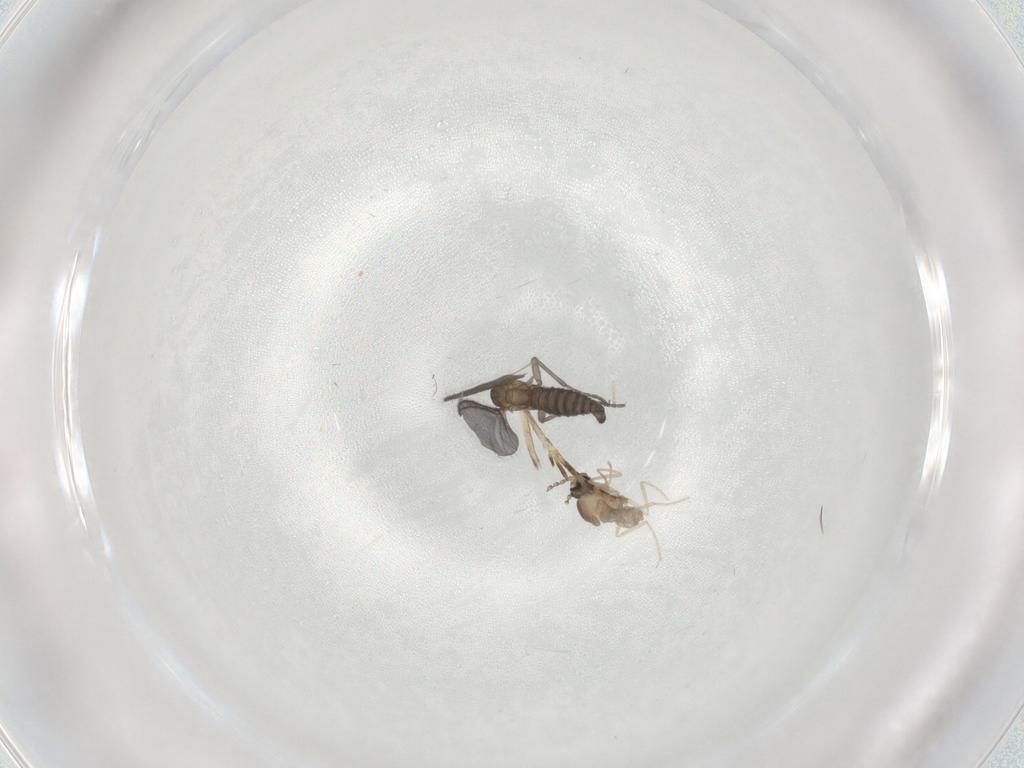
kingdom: Animalia
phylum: Arthropoda
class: Insecta
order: Diptera
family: Sciaridae
